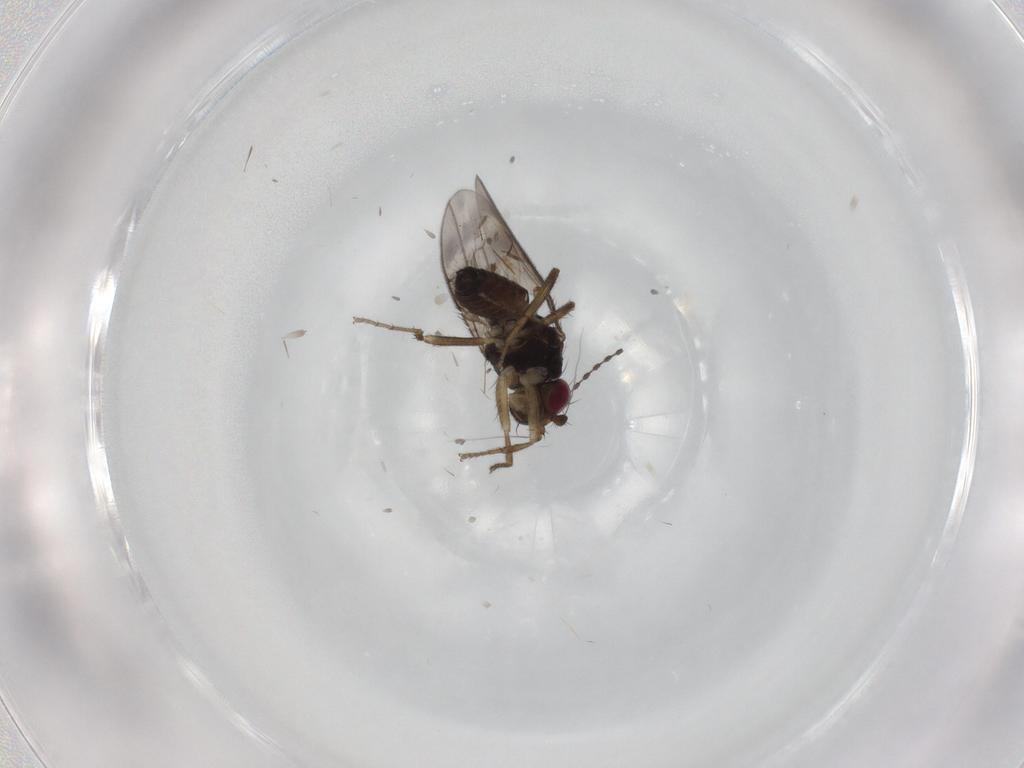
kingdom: Animalia
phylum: Arthropoda
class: Insecta
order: Diptera
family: Sphaeroceridae
